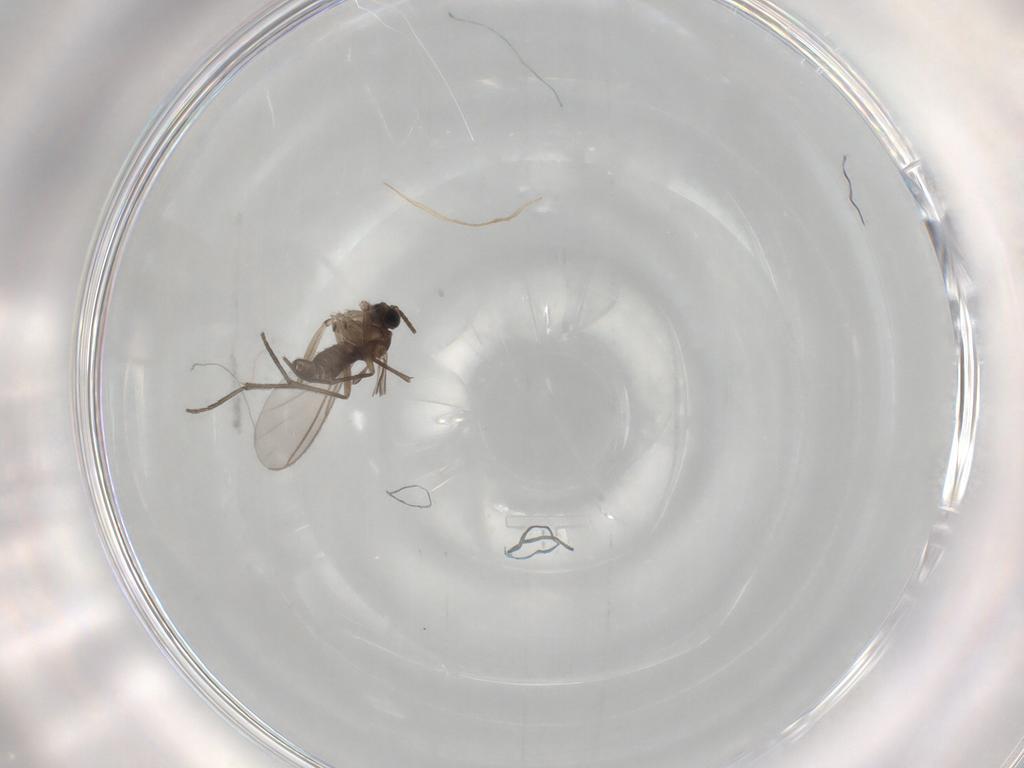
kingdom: Animalia
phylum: Arthropoda
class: Insecta
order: Diptera
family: Sciaridae
